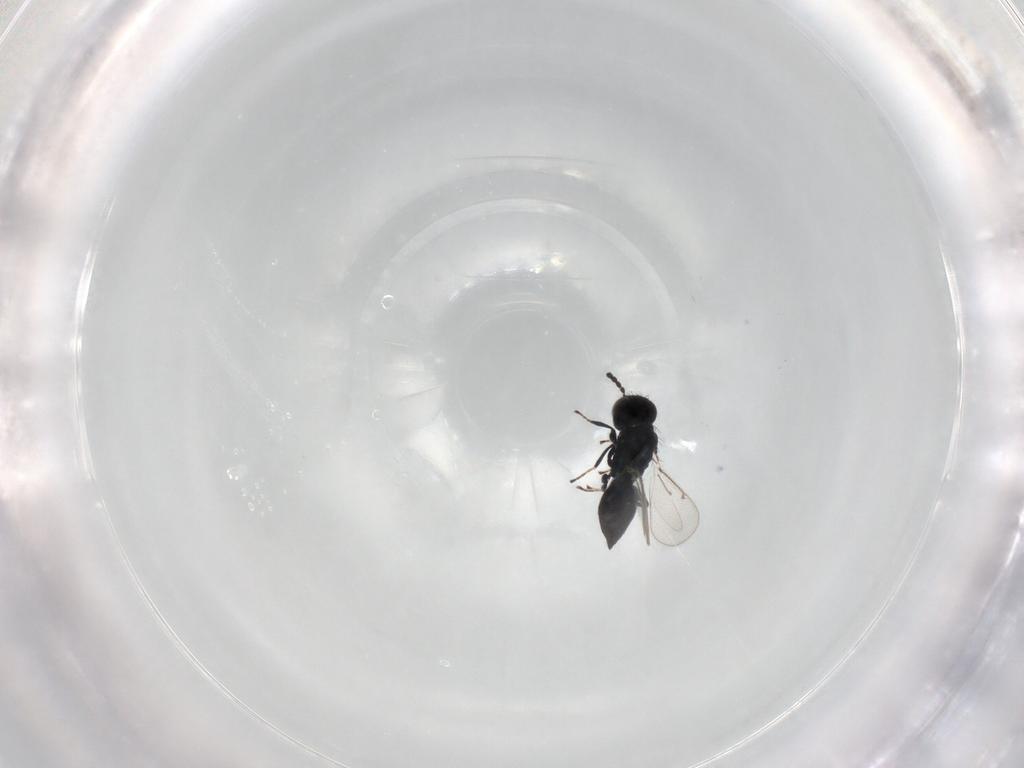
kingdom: Animalia
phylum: Arthropoda
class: Insecta
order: Hymenoptera
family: Eulophidae
